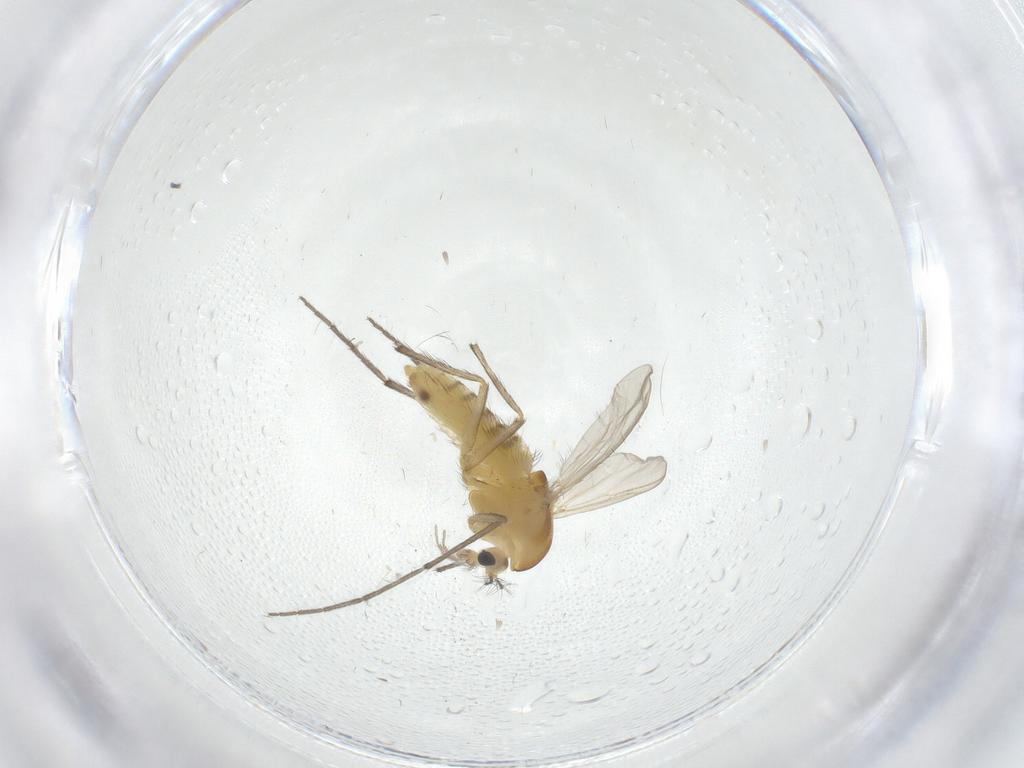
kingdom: Animalia
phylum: Arthropoda
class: Insecta
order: Diptera
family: Chironomidae
